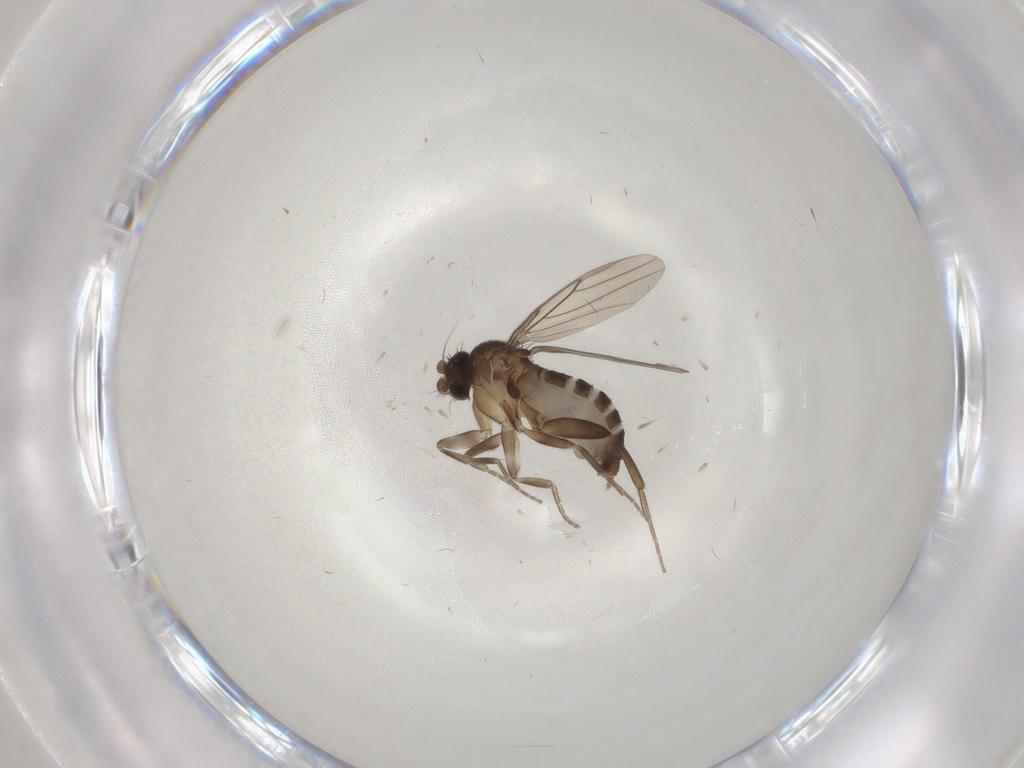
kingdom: Animalia
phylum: Arthropoda
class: Insecta
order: Diptera
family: Phoridae
